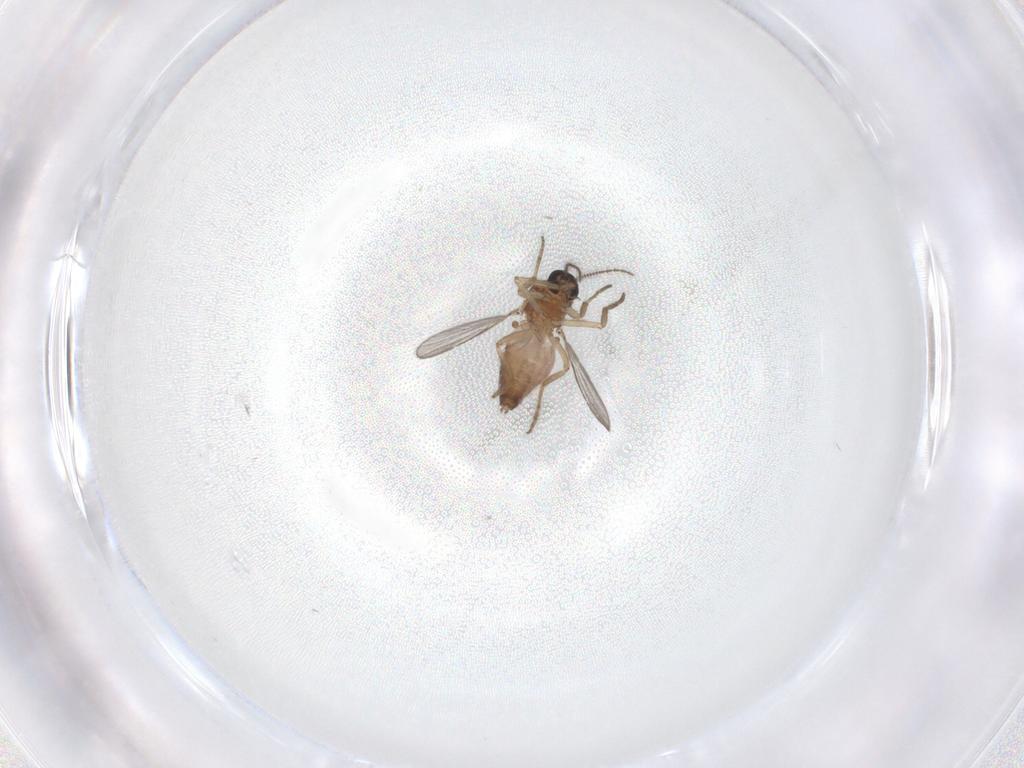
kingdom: Animalia
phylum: Arthropoda
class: Insecta
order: Diptera
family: Ceratopogonidae
